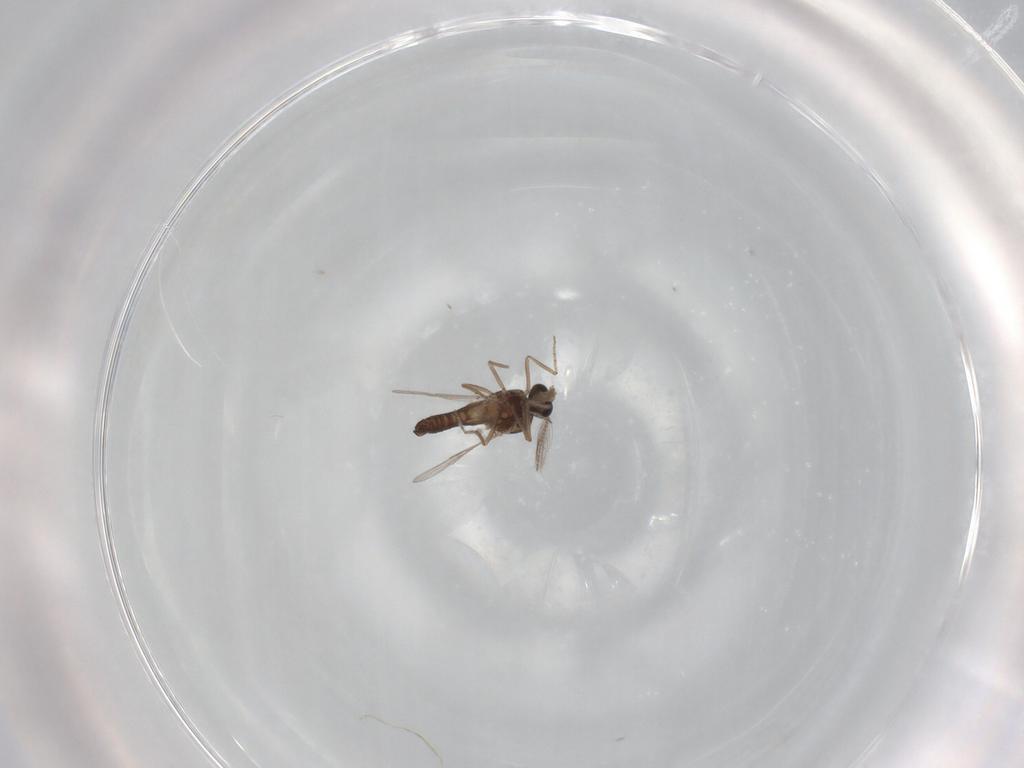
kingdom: Animalia
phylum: Arthropoda
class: Insecta
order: Diptera
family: Ceratopogonidae
